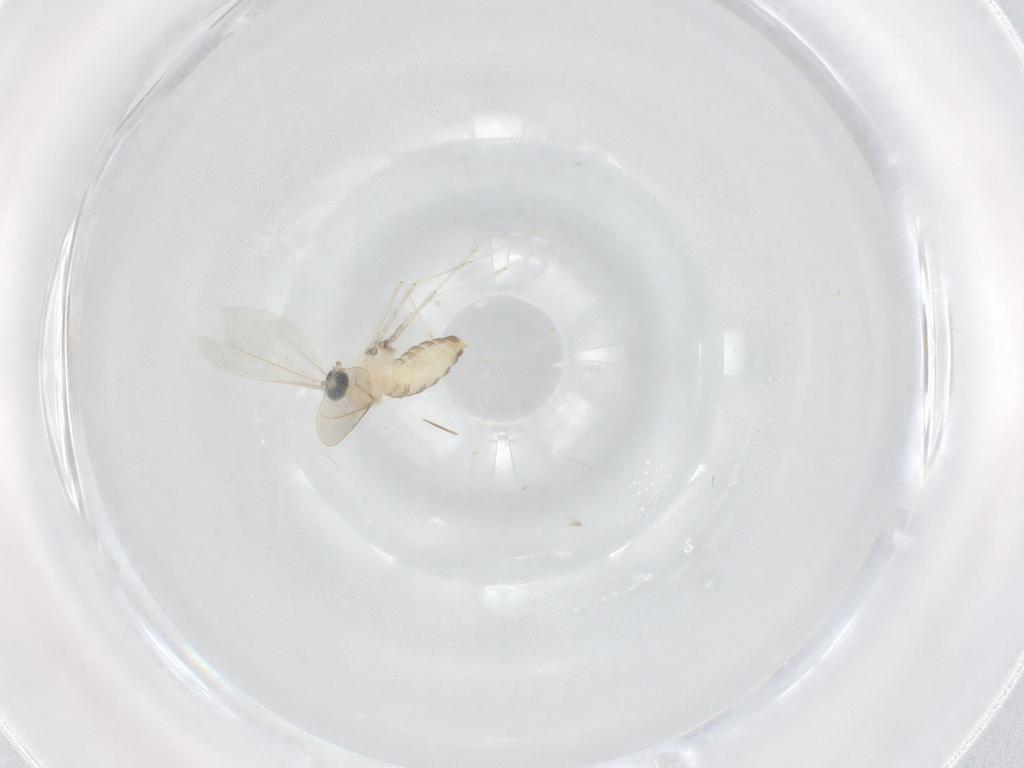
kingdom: Animalia
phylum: Arthropoda
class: Insecta
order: Diptera
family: Cecidomyiidae
